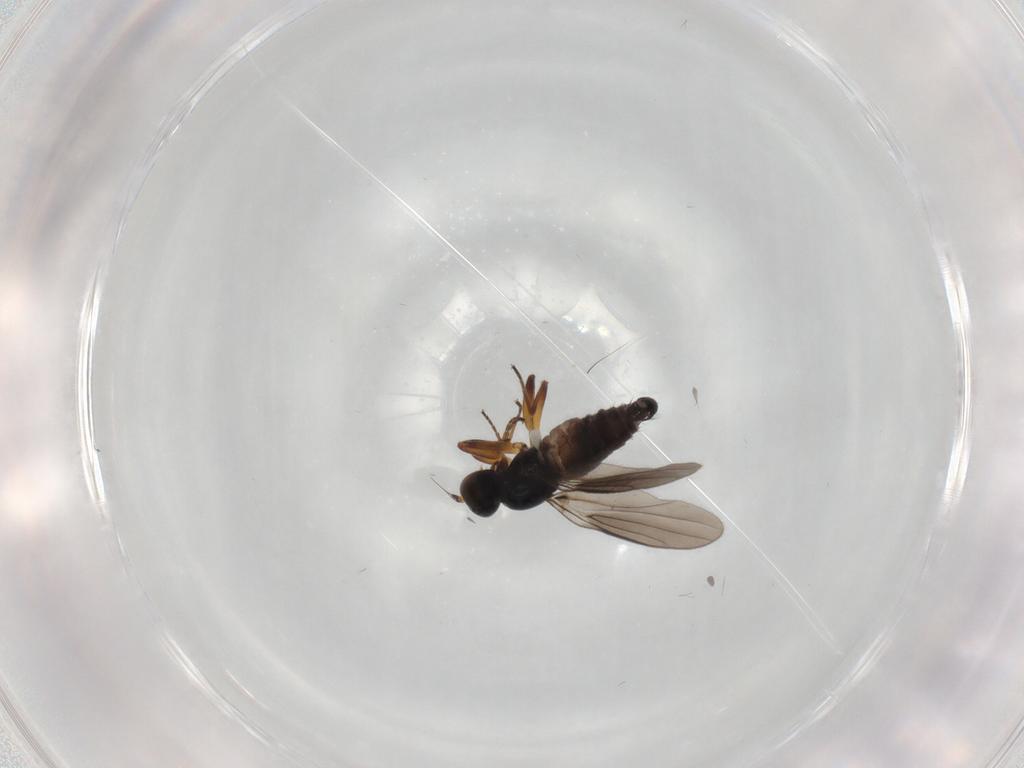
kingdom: Animalia
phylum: Arthropoda
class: Insecta
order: Diptera
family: Hybotidae
